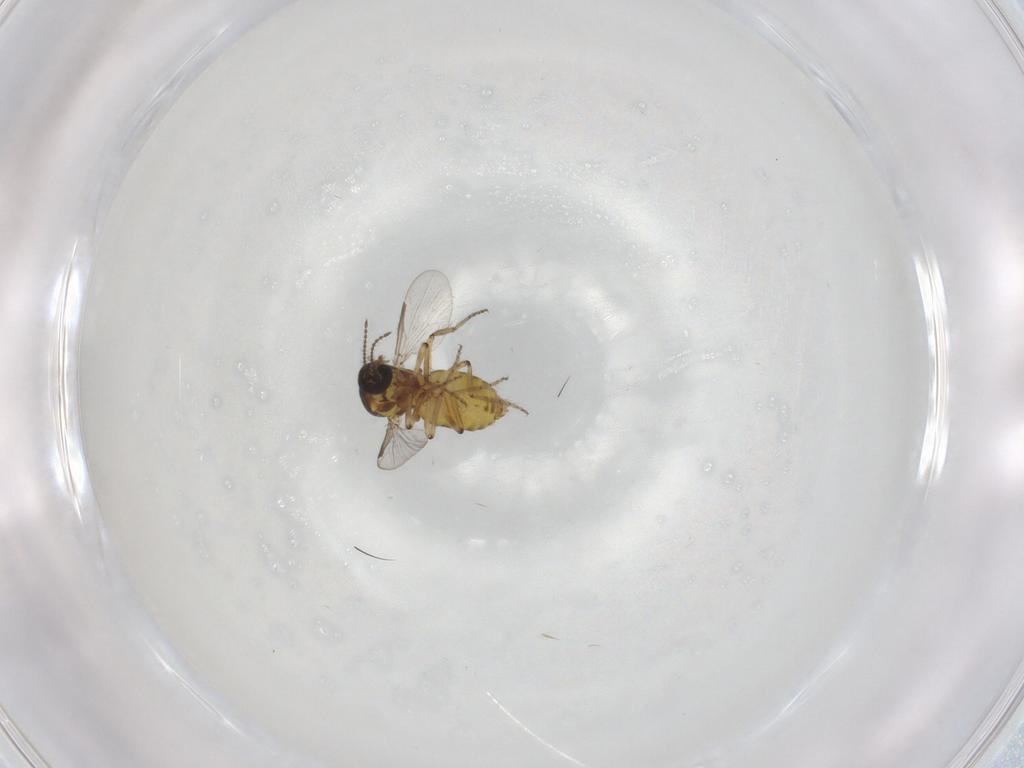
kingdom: Animalia
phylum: Arthropoda
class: Insecta
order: Diptera
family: Ceratopogonidae
